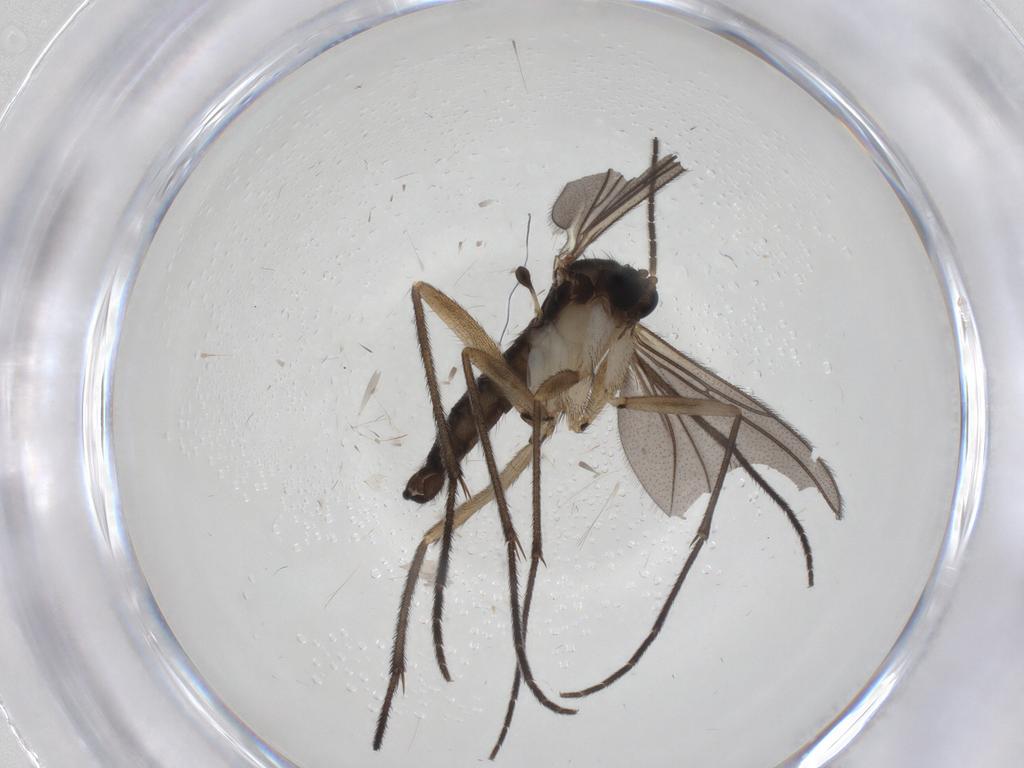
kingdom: Animalia
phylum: Arthropoda
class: Insecta
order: Diptera
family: Sciaridae
